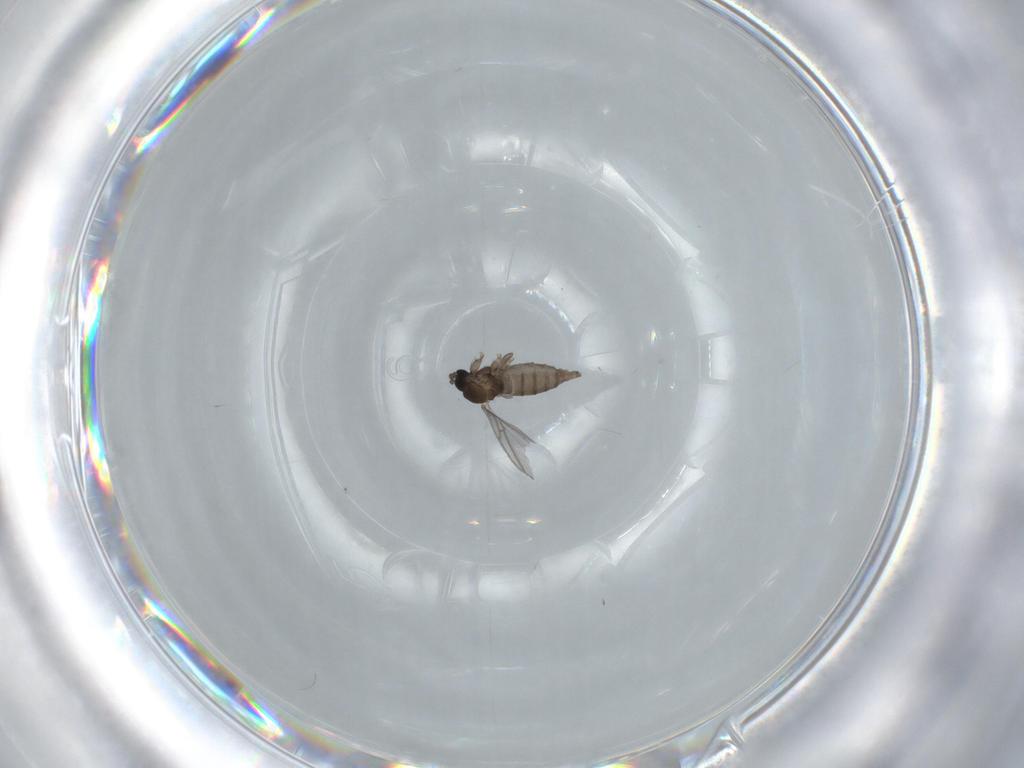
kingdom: Animalia
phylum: Arthropoda
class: Insecta
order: Diptera
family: Sciaridae
